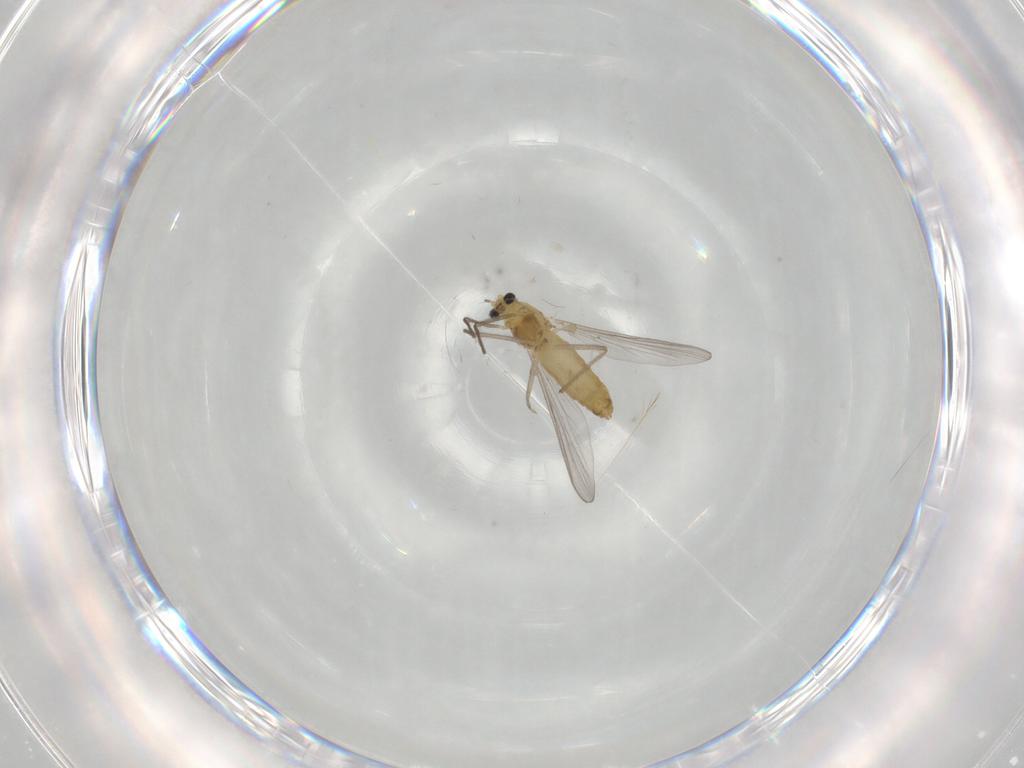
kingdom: Animalia
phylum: Arthropoda
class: Insecta
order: Diptera
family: Chironomidae
